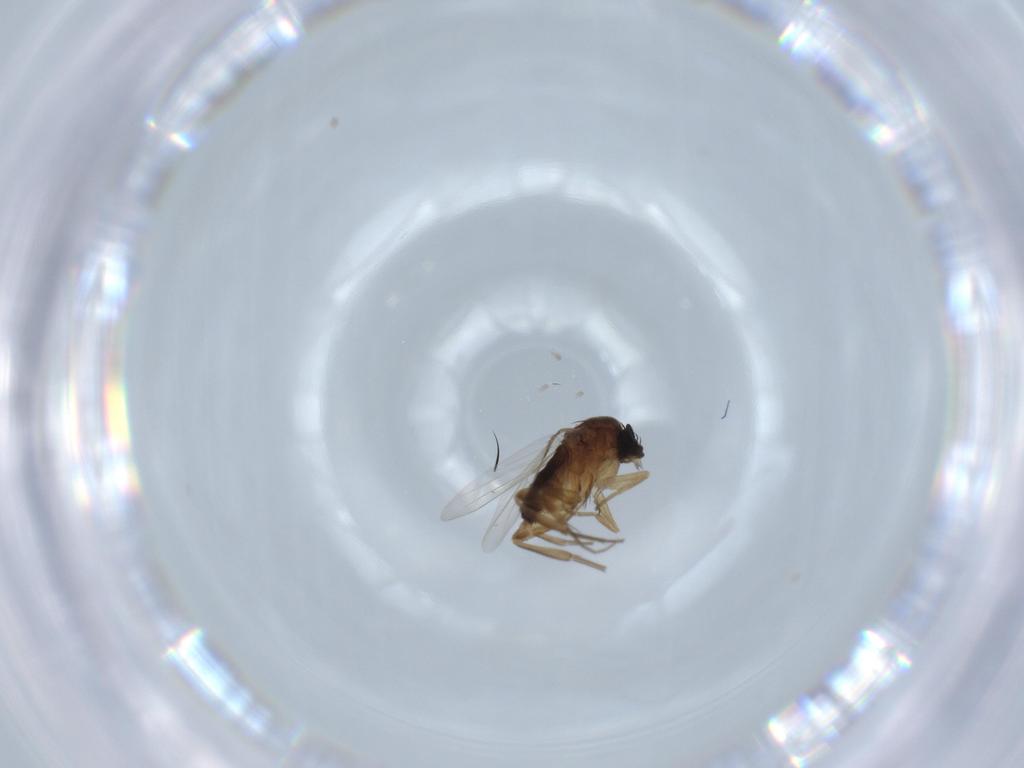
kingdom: Animalia
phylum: Arthropoda
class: Insecta
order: Diptera
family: Phoridae
